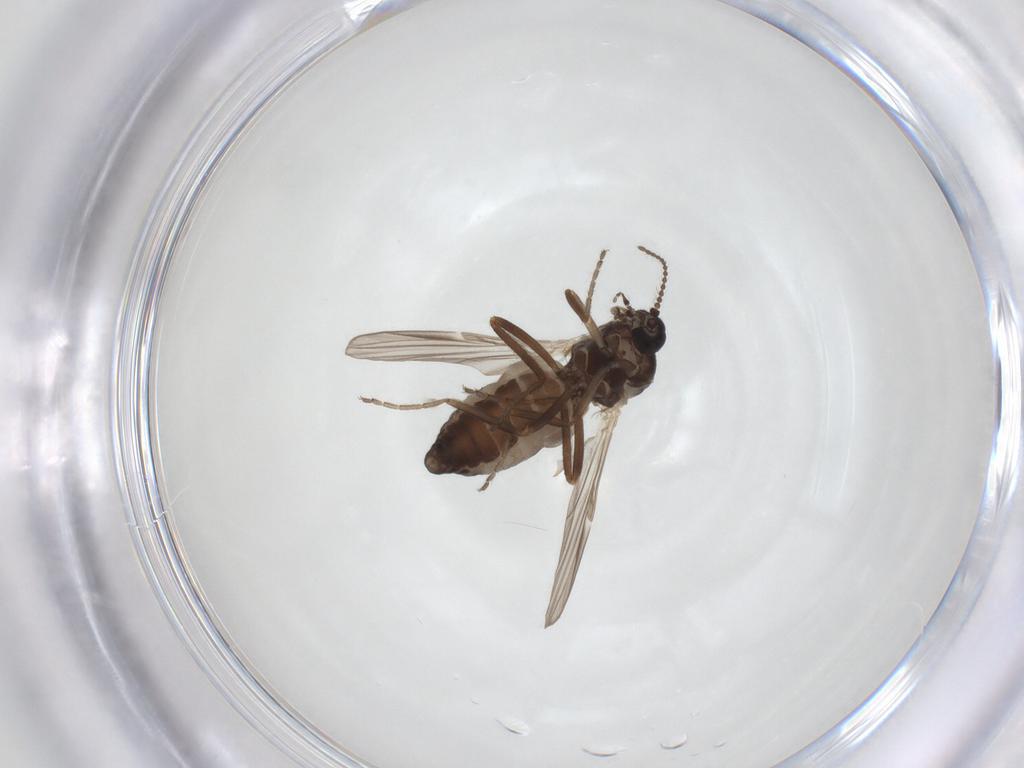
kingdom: Animalia
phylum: Arthropoda
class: Insecta
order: Diptera
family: Ceratopogonidae
